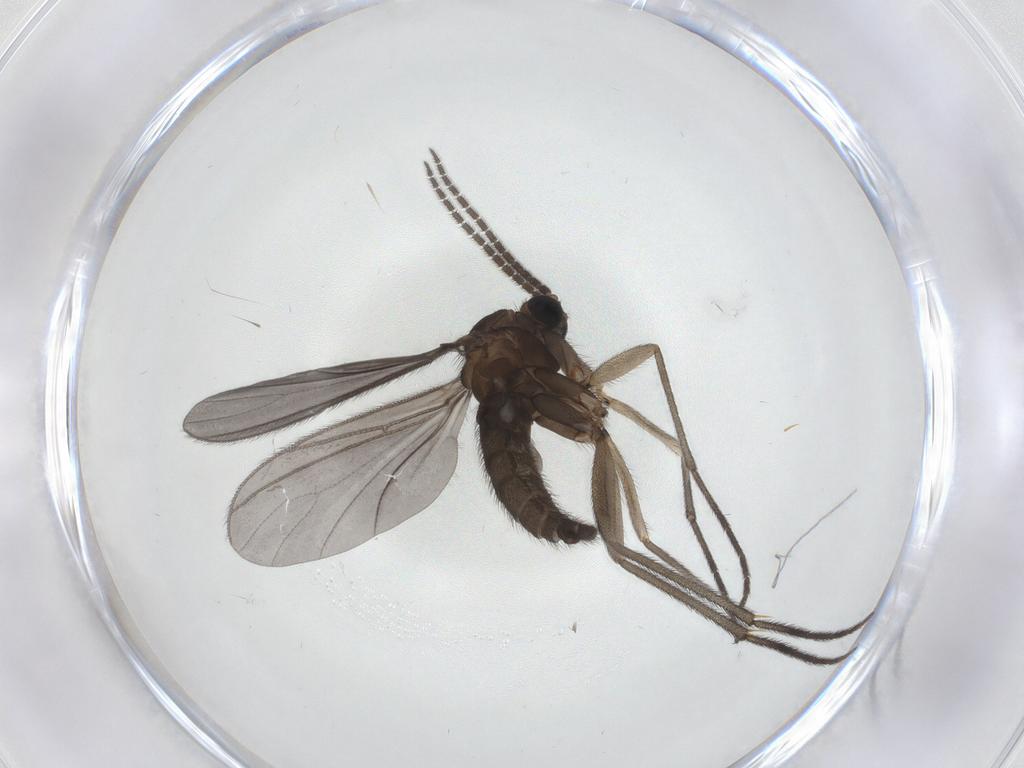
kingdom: Animalia
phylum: Arthropoda
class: Insecta
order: Diptera
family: Sciaridae
